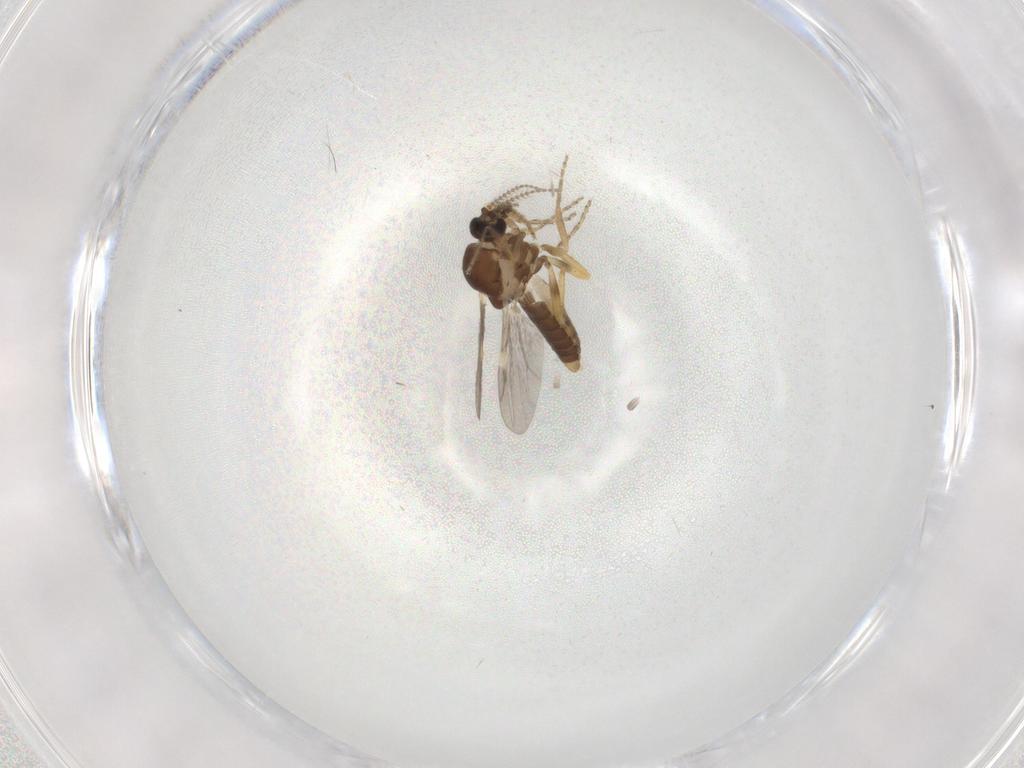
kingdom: Animalia
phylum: Arthropoda
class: Insecta
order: Diptera
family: Ceratopogonidae
